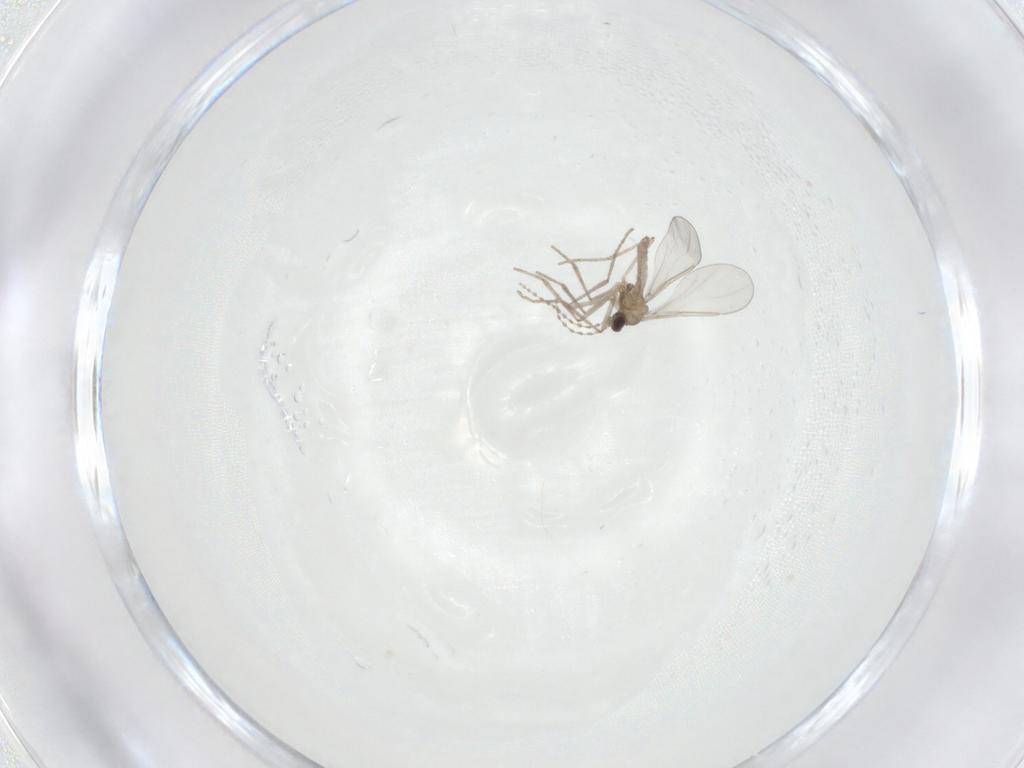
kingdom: Animalia
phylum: Arthropoda
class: Insecta
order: Diptera
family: Cecidomyiidae
